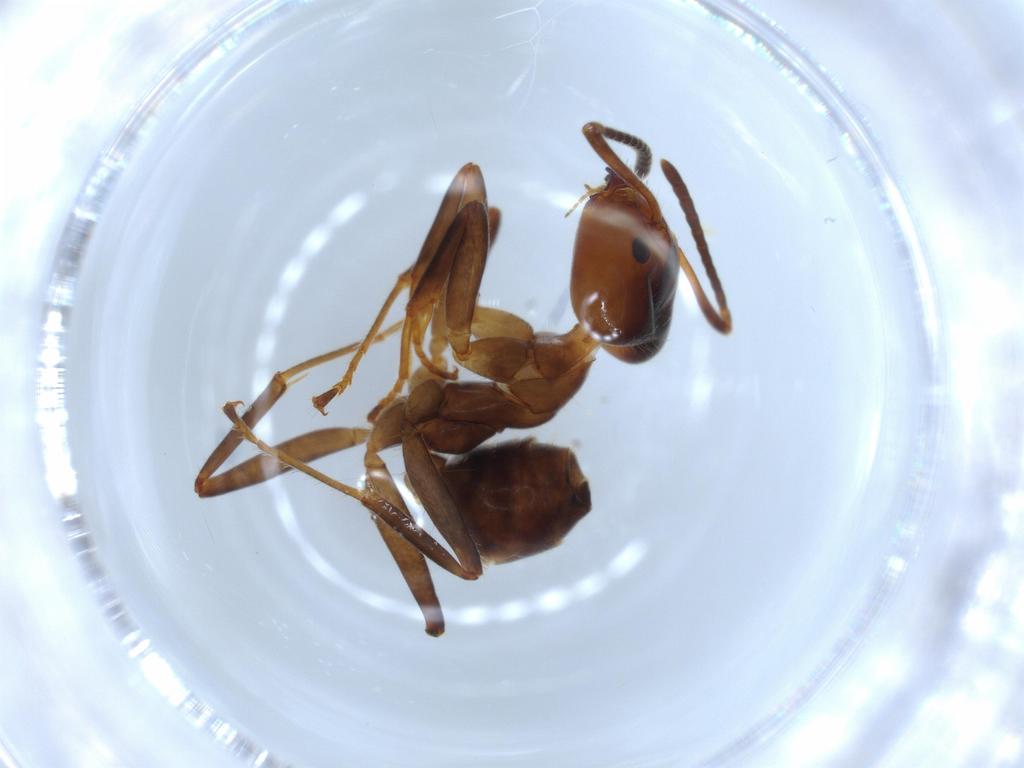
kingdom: Animalia
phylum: Arthropoda
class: Insecta
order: Hymenoptera
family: Formicidae
